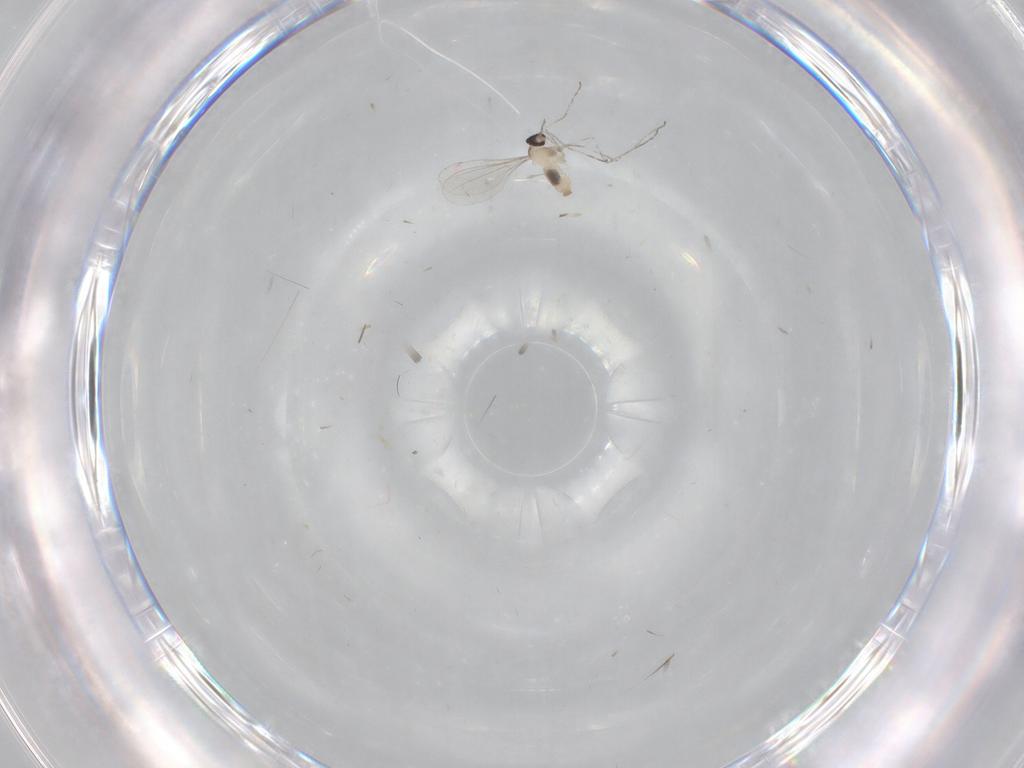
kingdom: Animalia
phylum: Arthropoda
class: Insecta
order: Diptera
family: Cecidomyiidae
